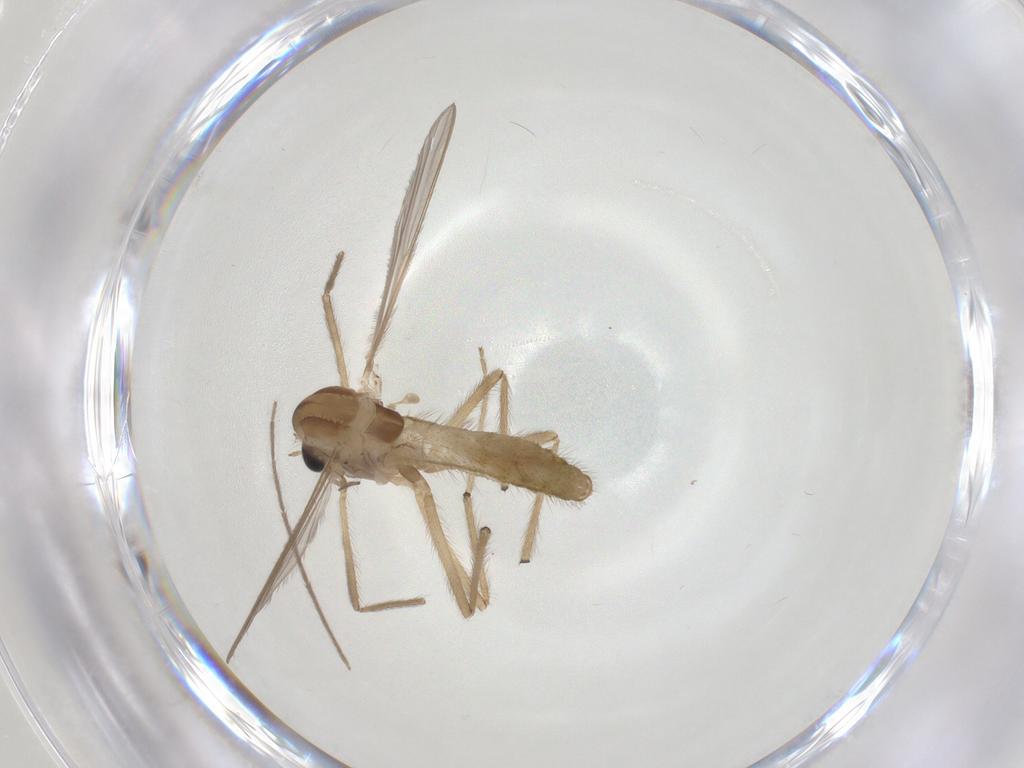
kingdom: Animalia
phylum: Arthropoda
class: Insecta
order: Diptera
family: Chironomidae
